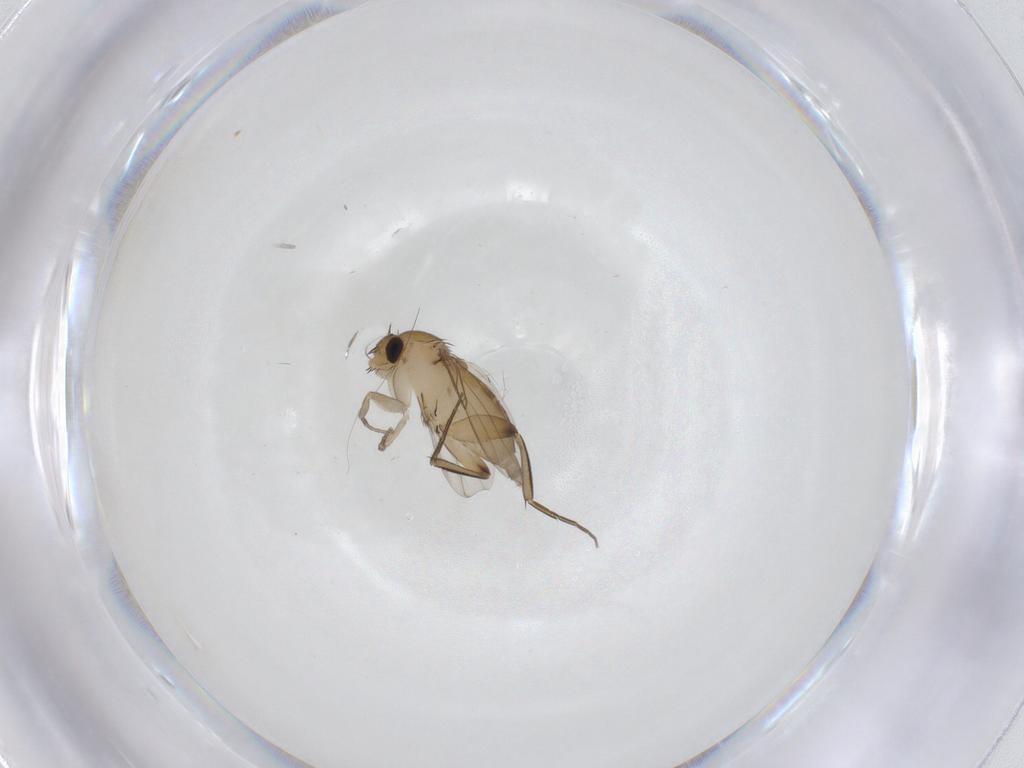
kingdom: Animalia
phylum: Arthropoda
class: Insecta
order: Diptera
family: Phoridae
